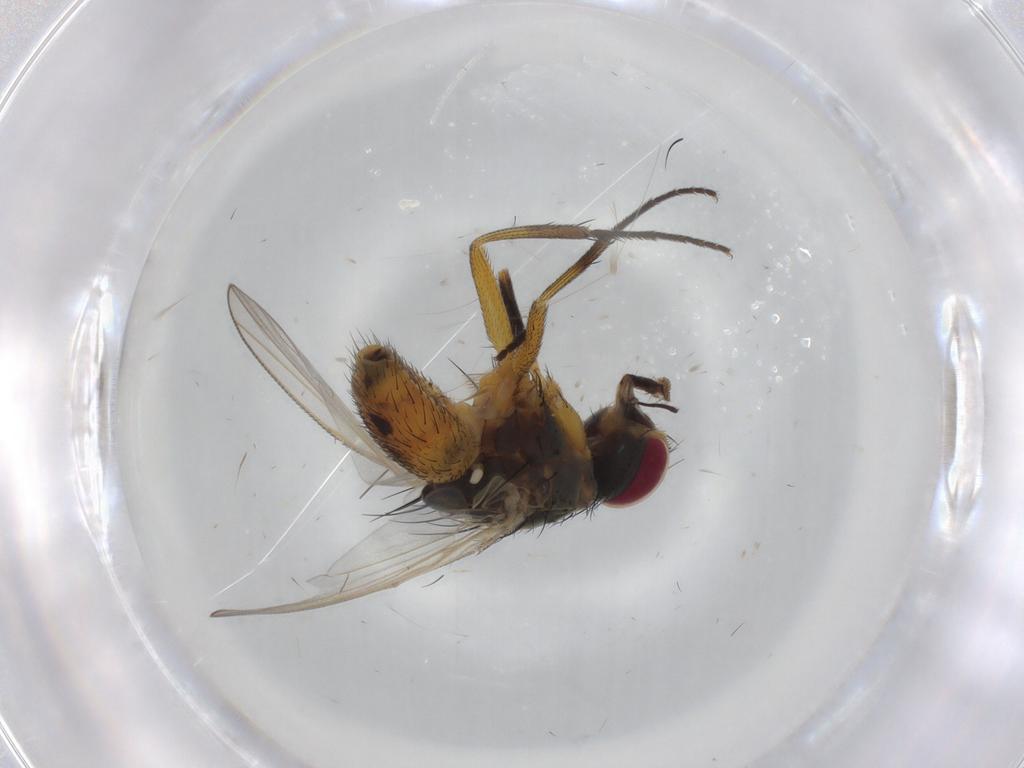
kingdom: Animalia
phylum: Arthropoda
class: Insecta
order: Diptera
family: Muscidae
